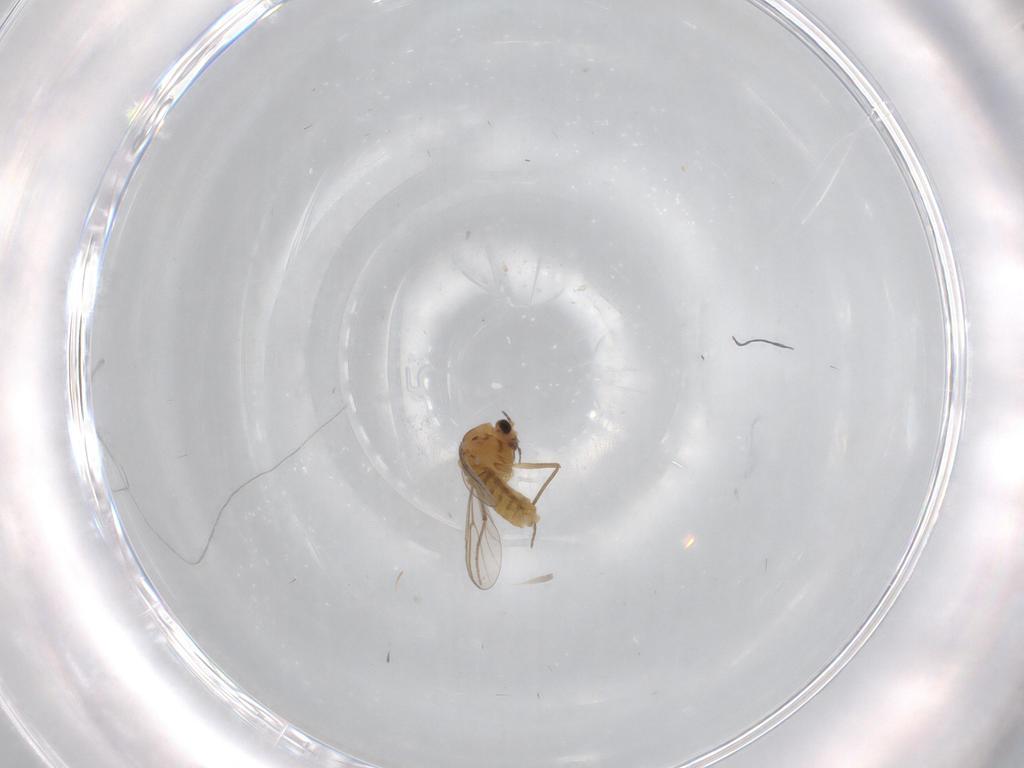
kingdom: Animalia
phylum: Arthropoda
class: Insecta
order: Diptera
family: Chironomidae
